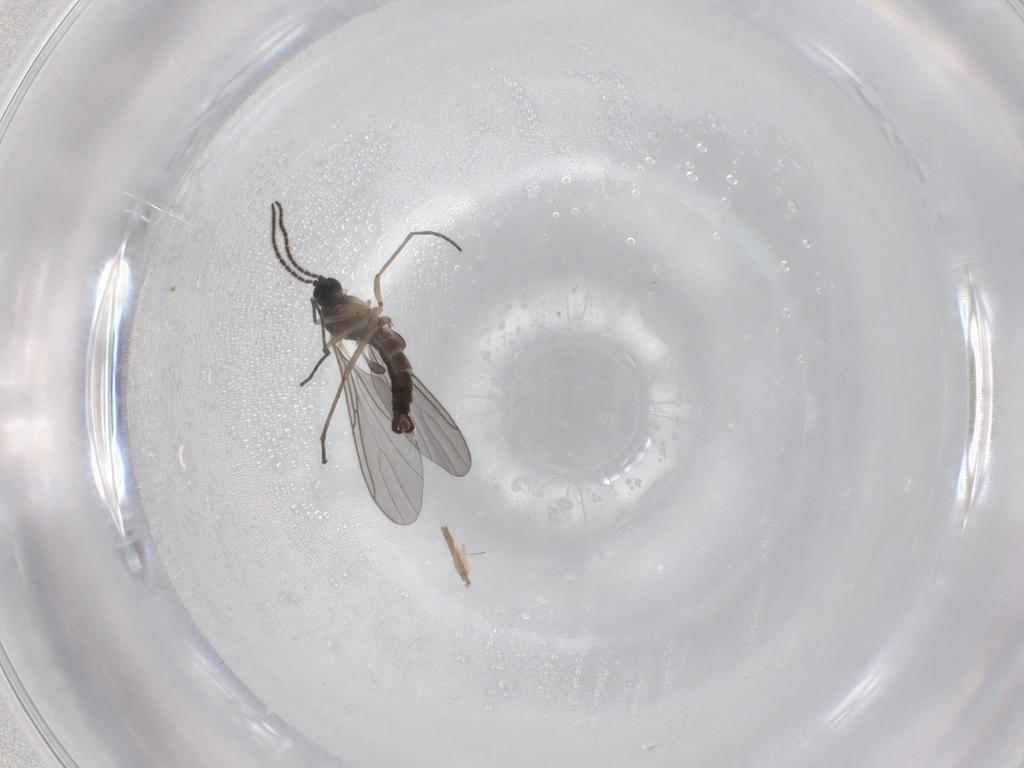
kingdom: Animalia
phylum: Arthropoda
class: Insecta
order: Diptera
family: Sciaridae
